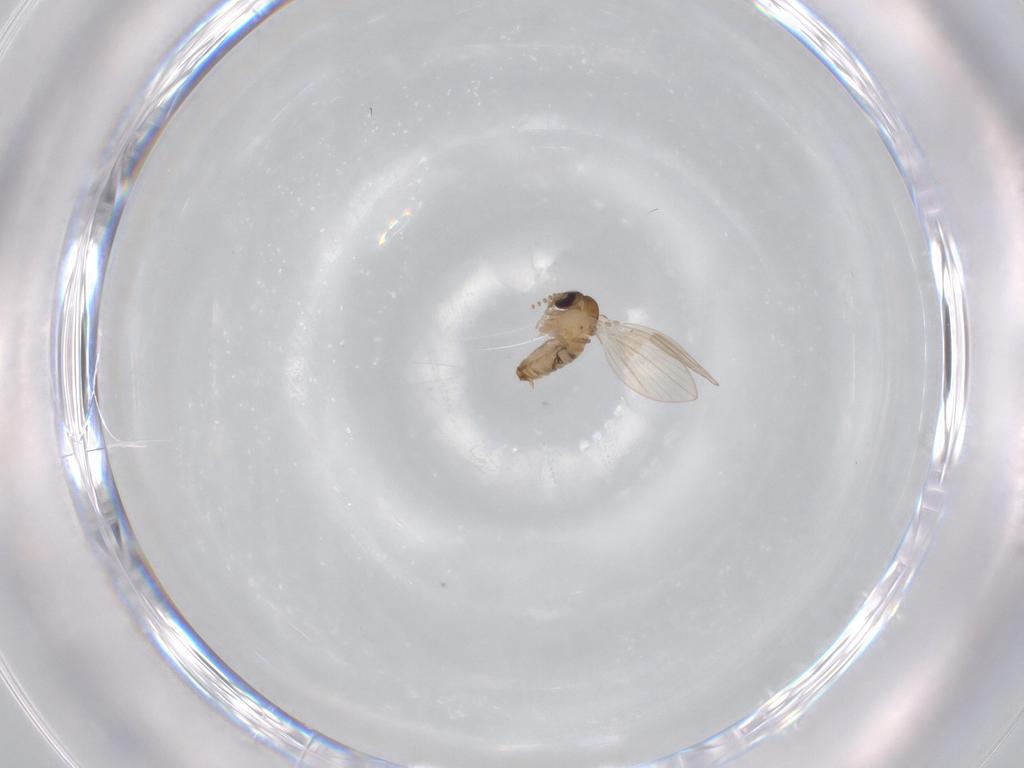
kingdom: Animalia
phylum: Arthropoda
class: Insecta
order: Diptera
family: Psychodidae
